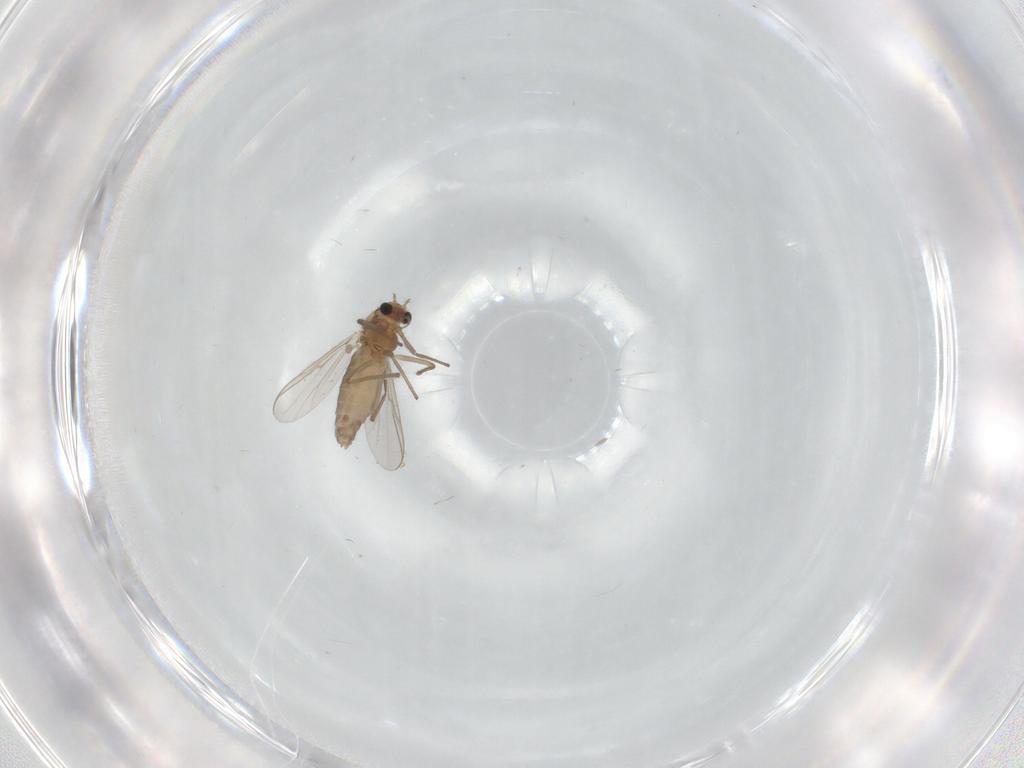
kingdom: Animalia
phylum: Arthropoda
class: Insecta
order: Diptera
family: Chironomidae
